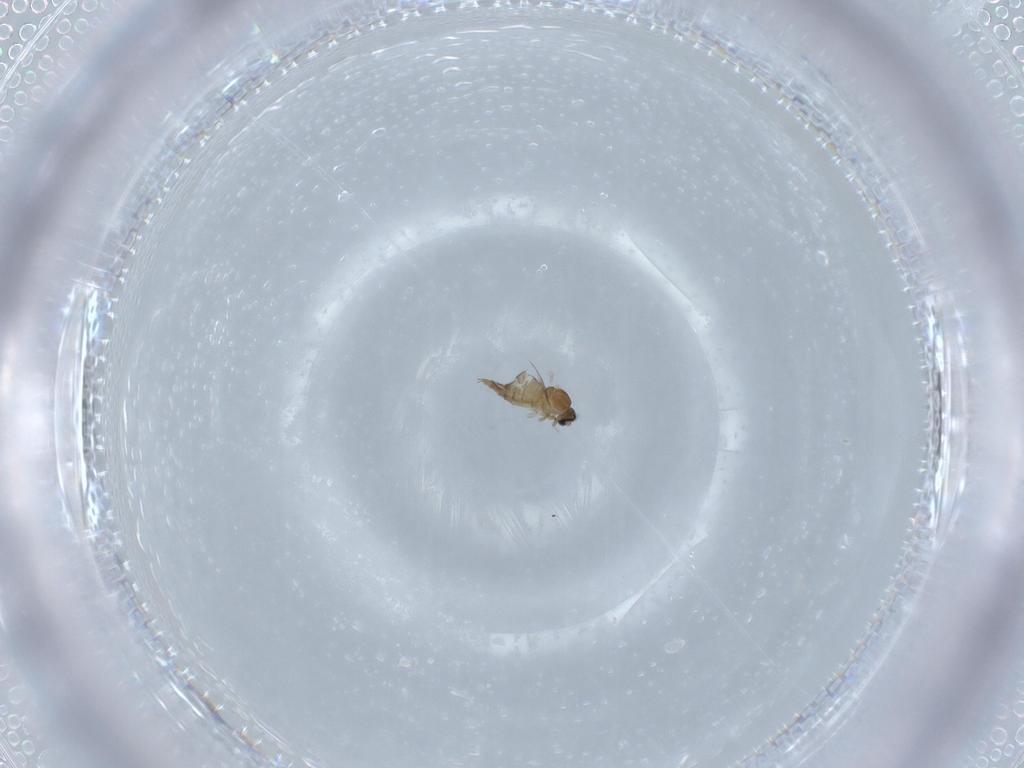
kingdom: Animalia
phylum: Arthropoda
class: Insecta
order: Diptera
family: Cecidomyiidae
